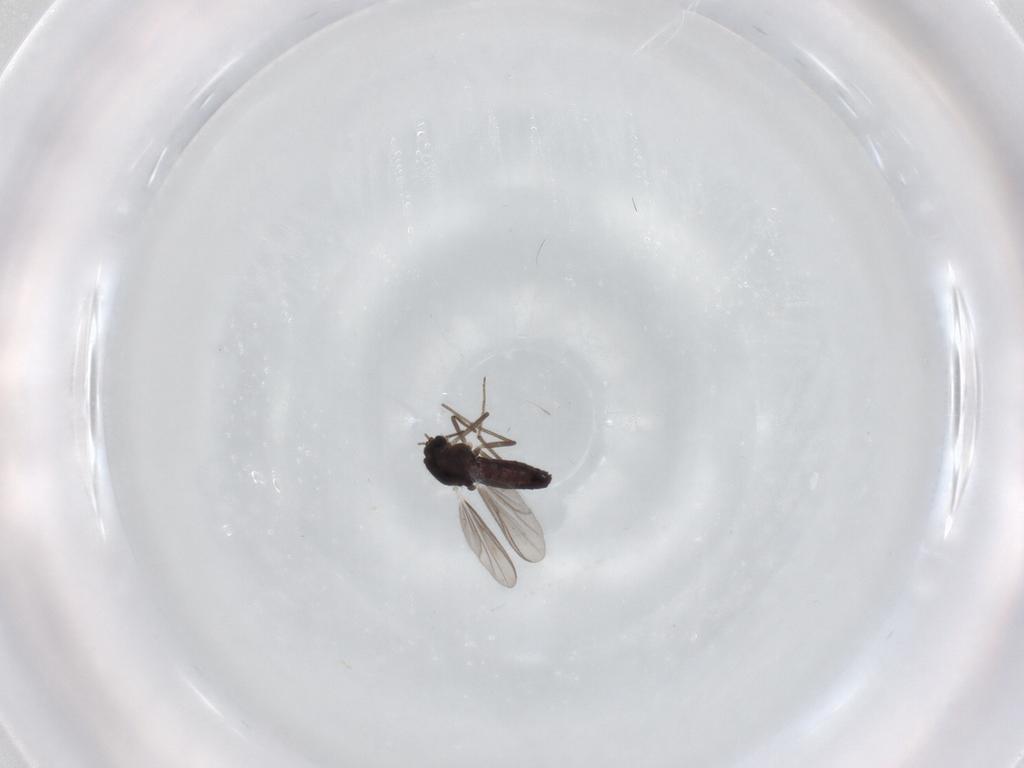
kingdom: Animalia
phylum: Arthropoda
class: Insecta
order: Diptera
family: Chironomidae
